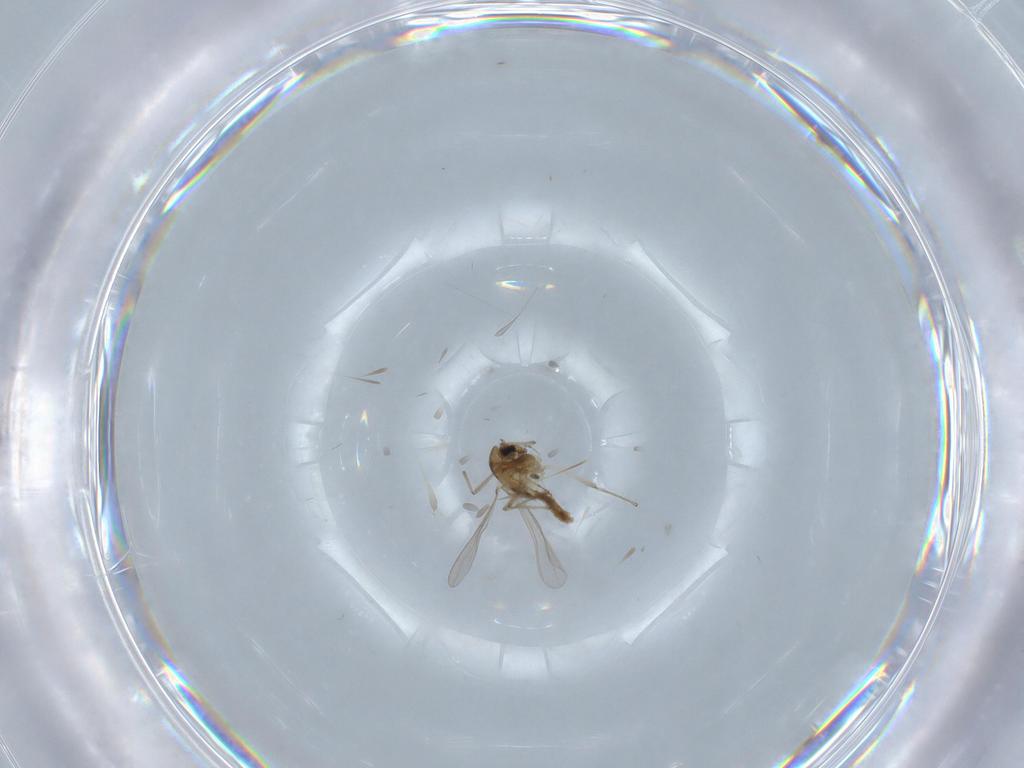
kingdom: Animalia
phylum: Arthropoda
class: Insecta
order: Diptera
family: Chironomidae
